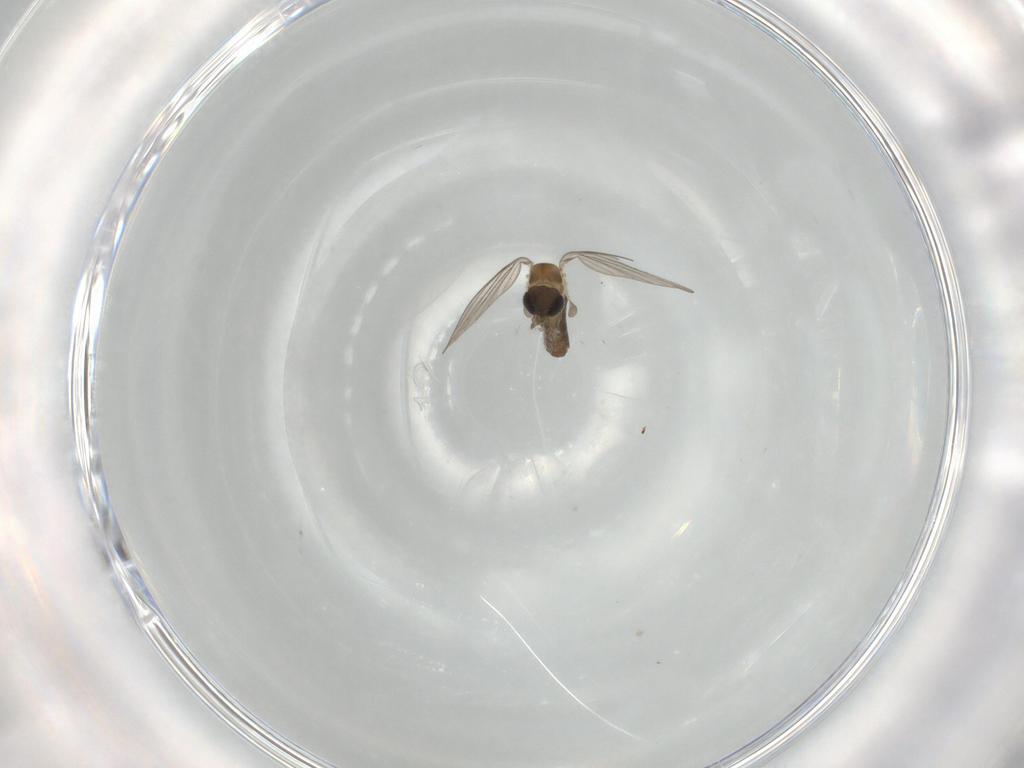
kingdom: Animalia
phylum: Arthropoda
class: Insecta
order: Diptera
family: Psychodidae
